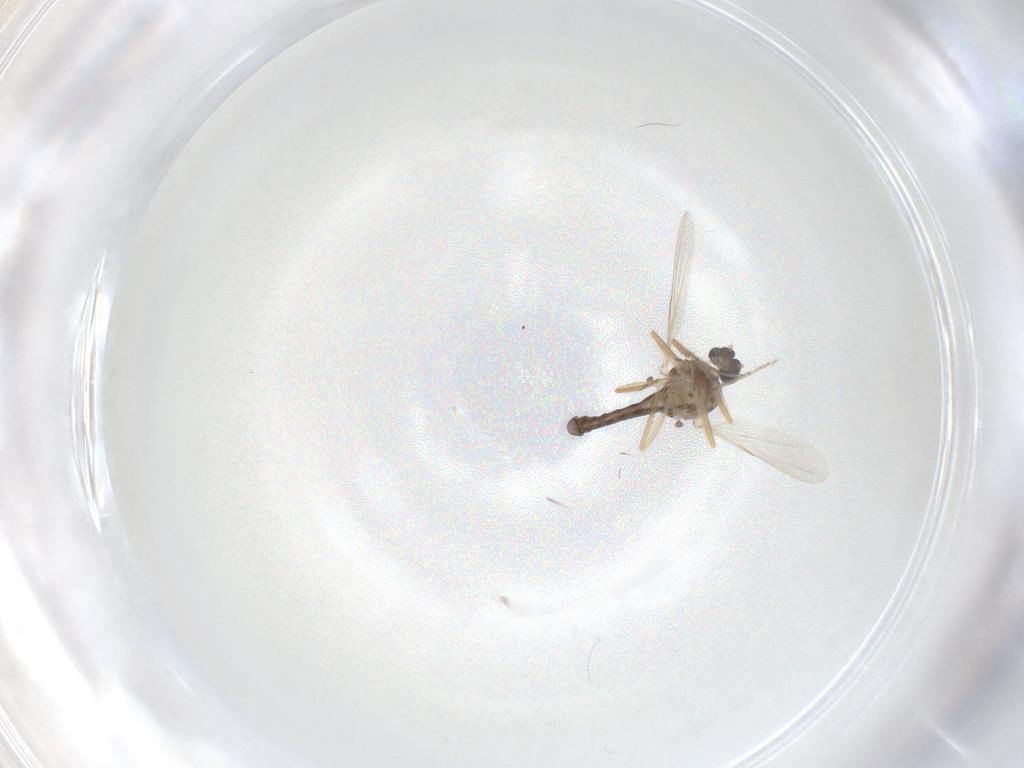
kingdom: Animalia
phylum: Arthropoda
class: Insecta
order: Diptera
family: Ceratopogonidae
